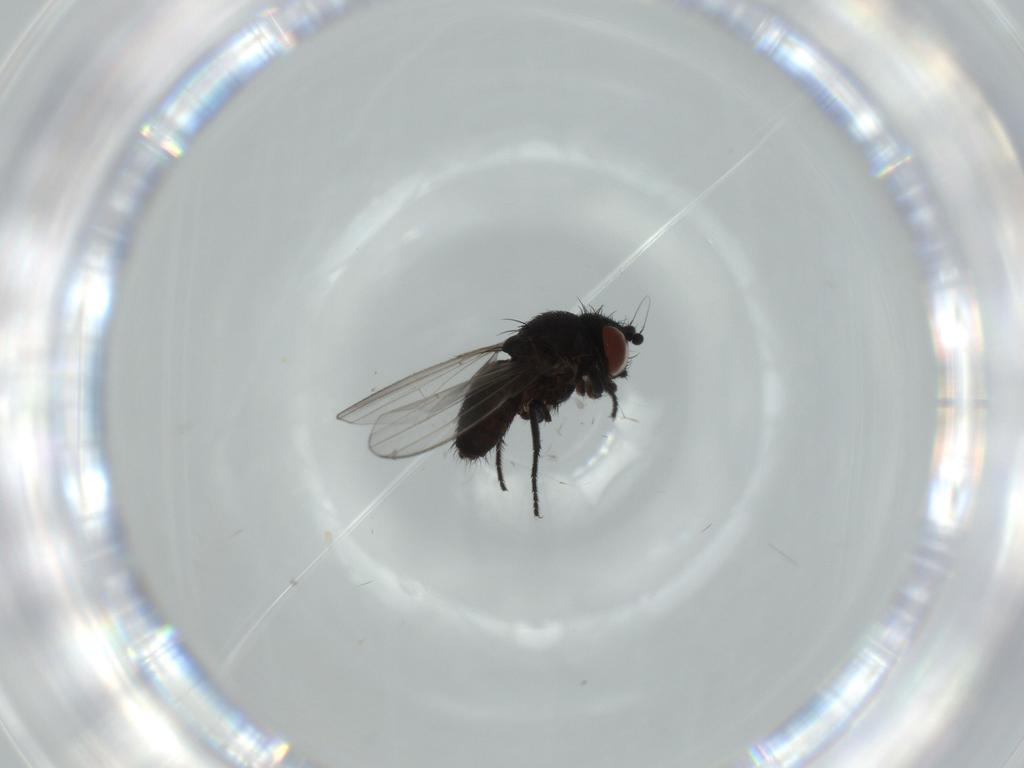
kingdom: Animalia
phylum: Arthropoda
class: Insecta
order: Diptera
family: Milichiidae
